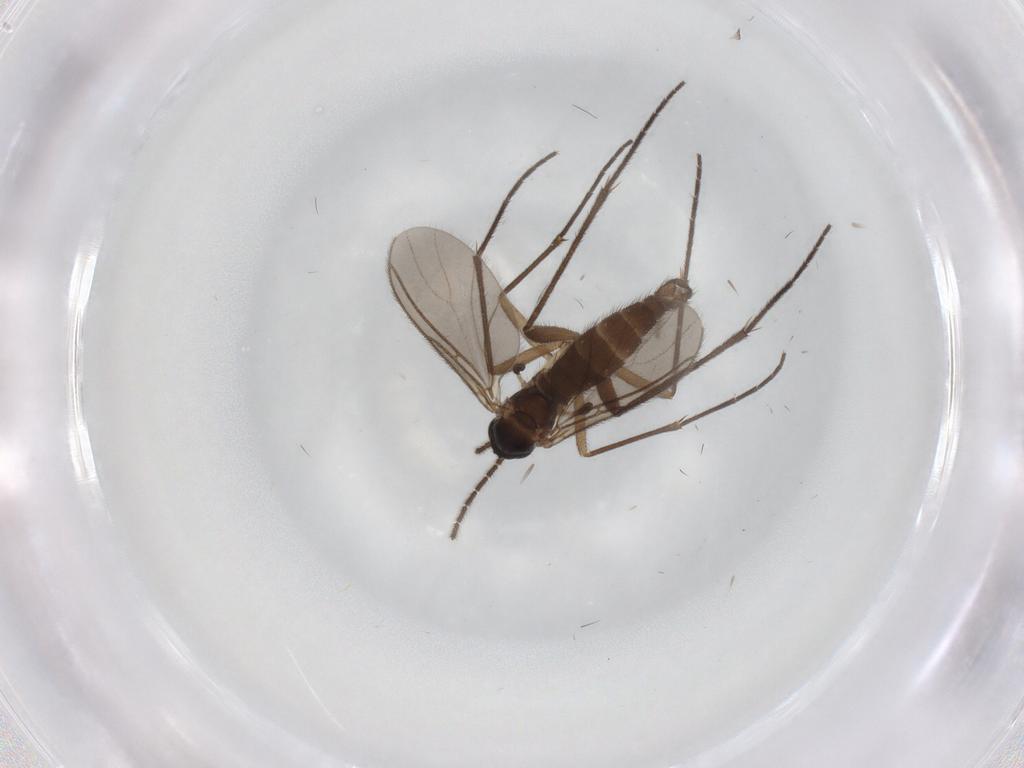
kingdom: Animalia
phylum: Arthropoda
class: Insecta
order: Diptera
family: Sciaridae
